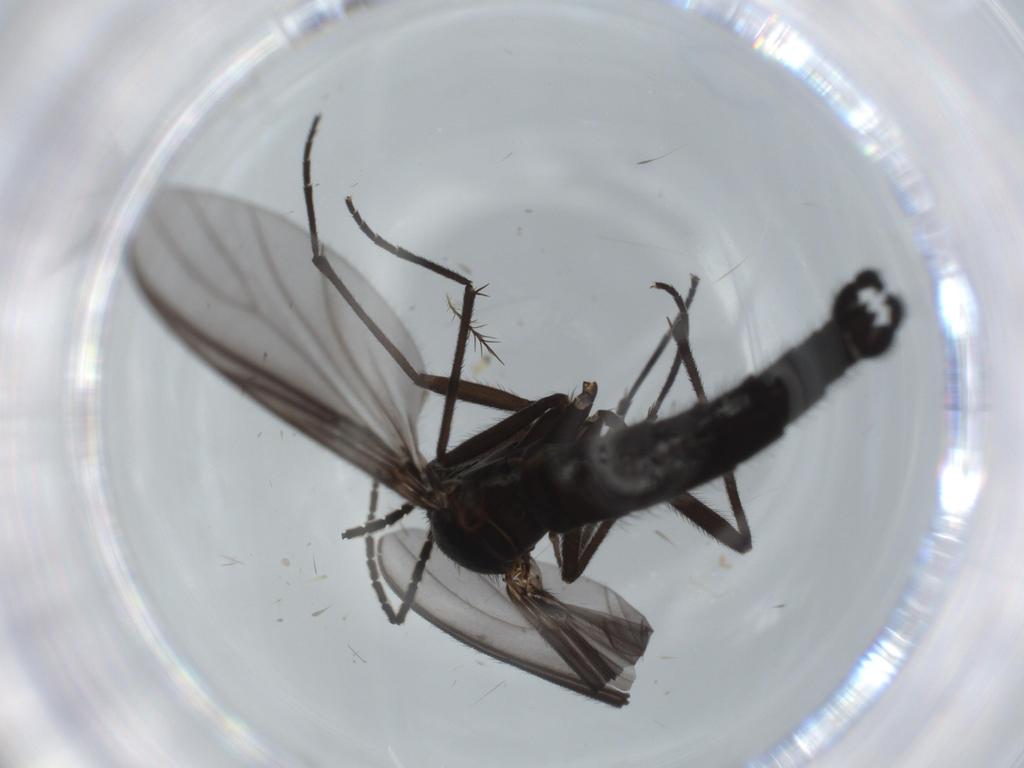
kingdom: Animalia
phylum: Arthropoda
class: Insecta
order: Diptera
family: Cecidomyiidae
